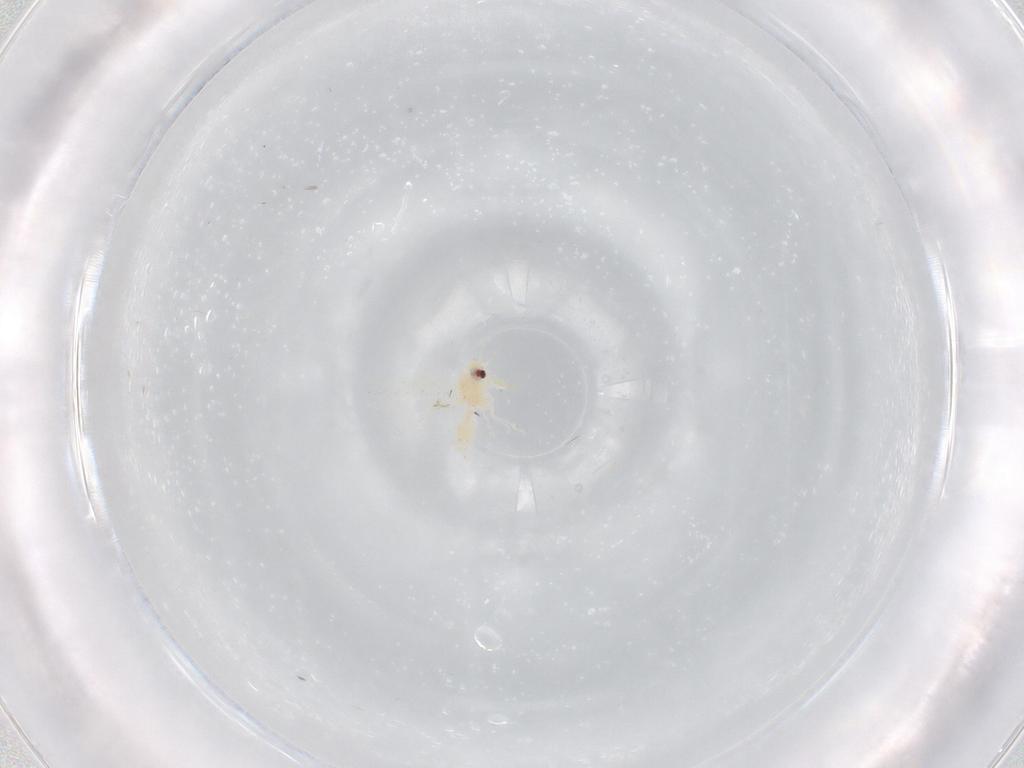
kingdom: Animalia
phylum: Arthropoda
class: Insecta
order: Hemiptera
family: Aleyrodidae
